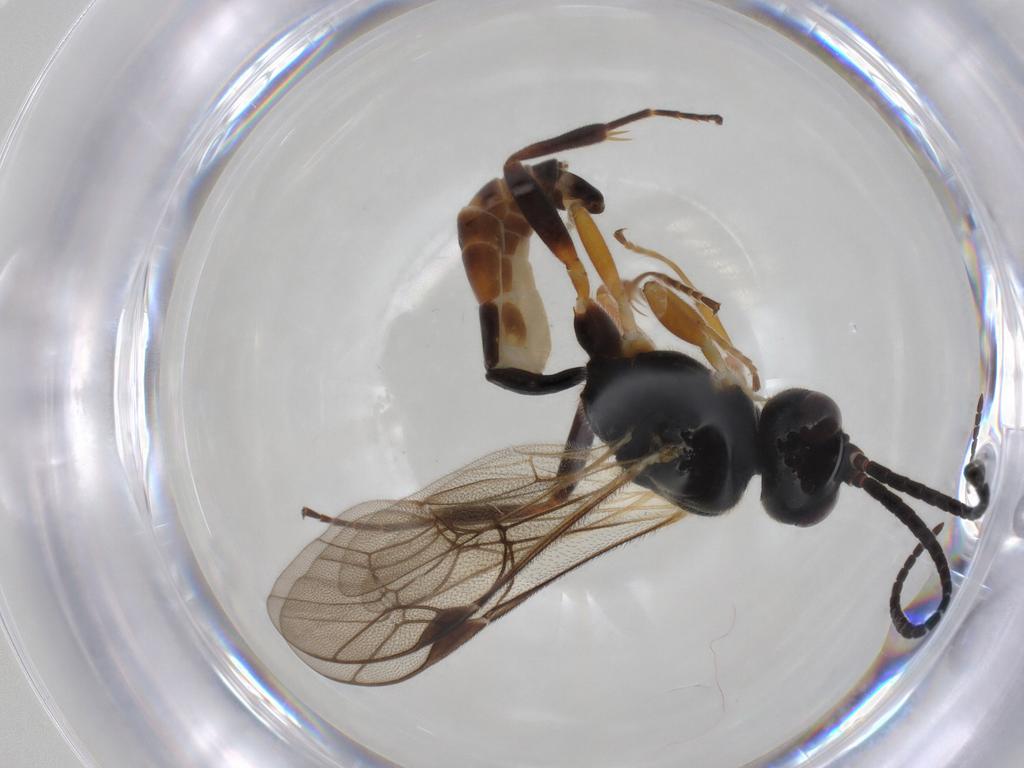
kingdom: Animalia
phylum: Arthropoda
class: Insecta
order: Hymenoptera
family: Ichneumonidae
